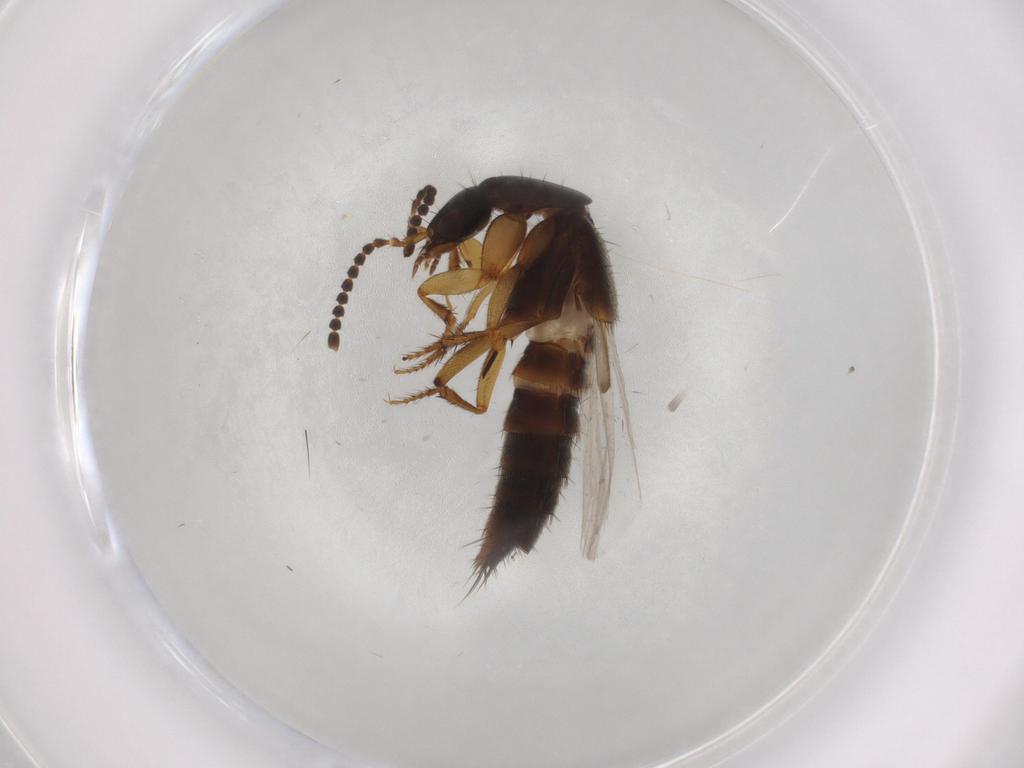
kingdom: Animalia
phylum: Arthropoda
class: Insecta
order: Coleoptera
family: Staphylinidae
